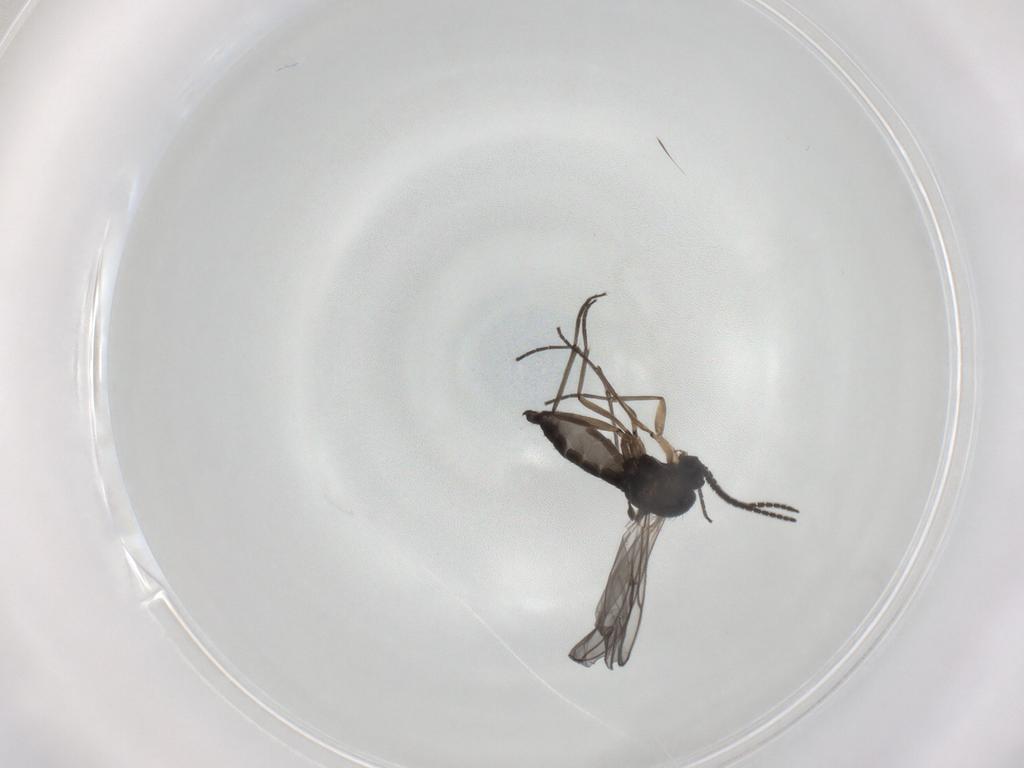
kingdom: Animalia
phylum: Arthropoda
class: Insecta
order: Diptera
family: Sciaridae
